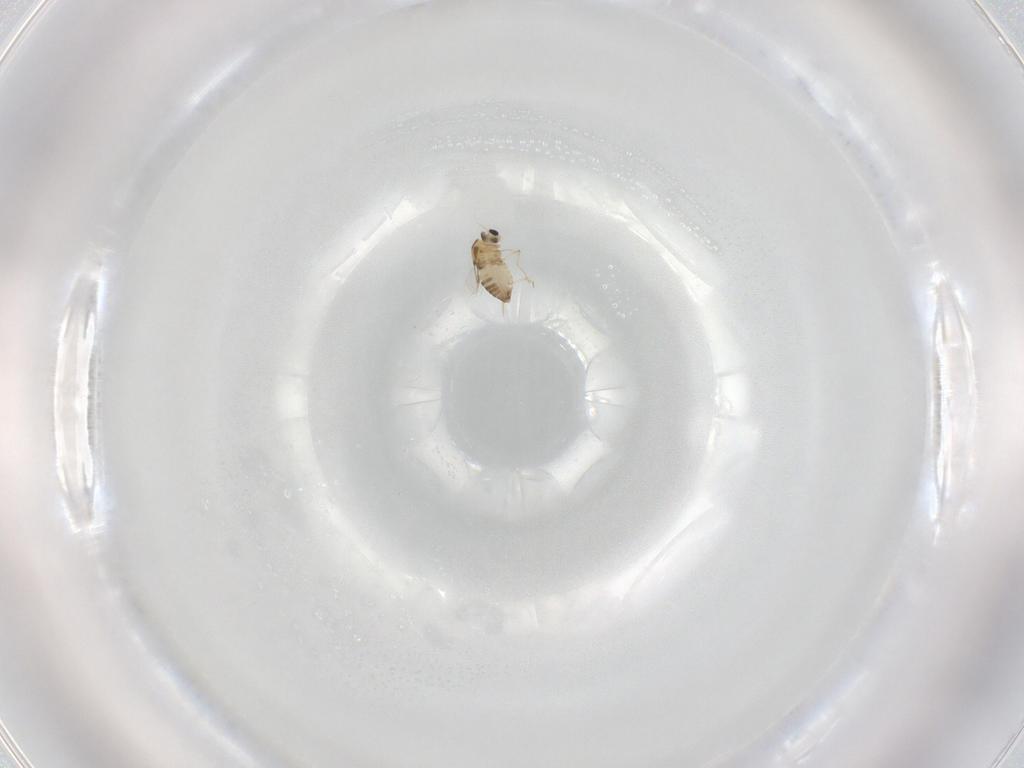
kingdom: Animalia
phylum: Arthropoda
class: Insecta
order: Diptera
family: Chironomidae
